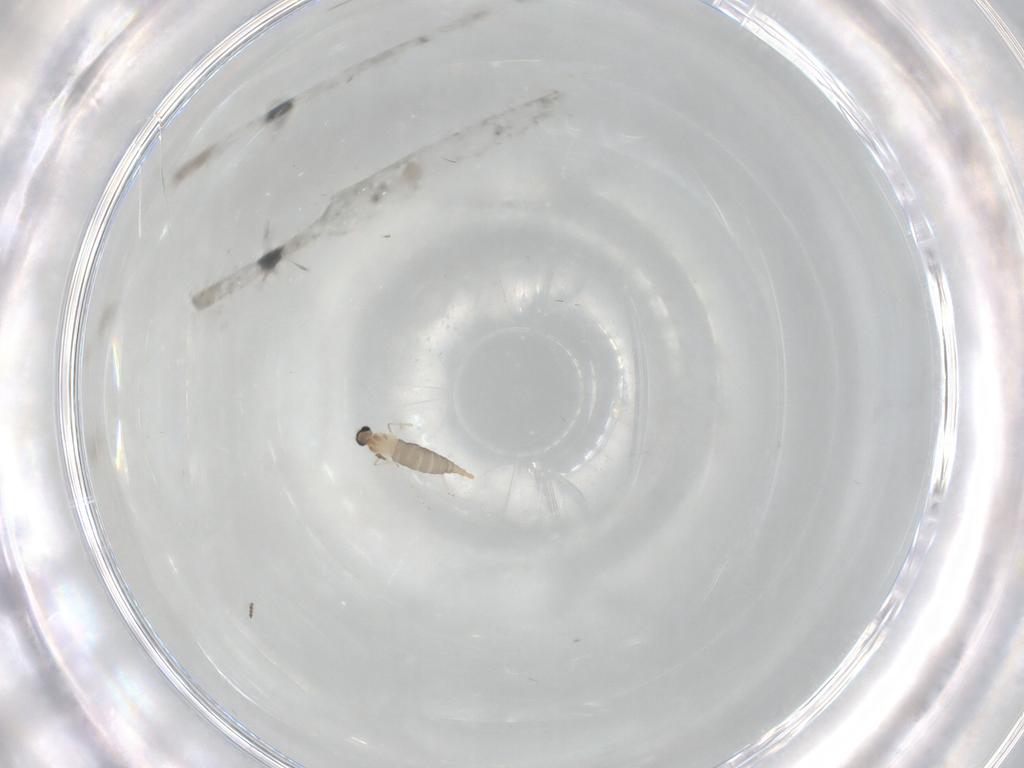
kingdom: Animalia
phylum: Arthropoda
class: Insecta
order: Diptera
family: Cecidomyiidae
